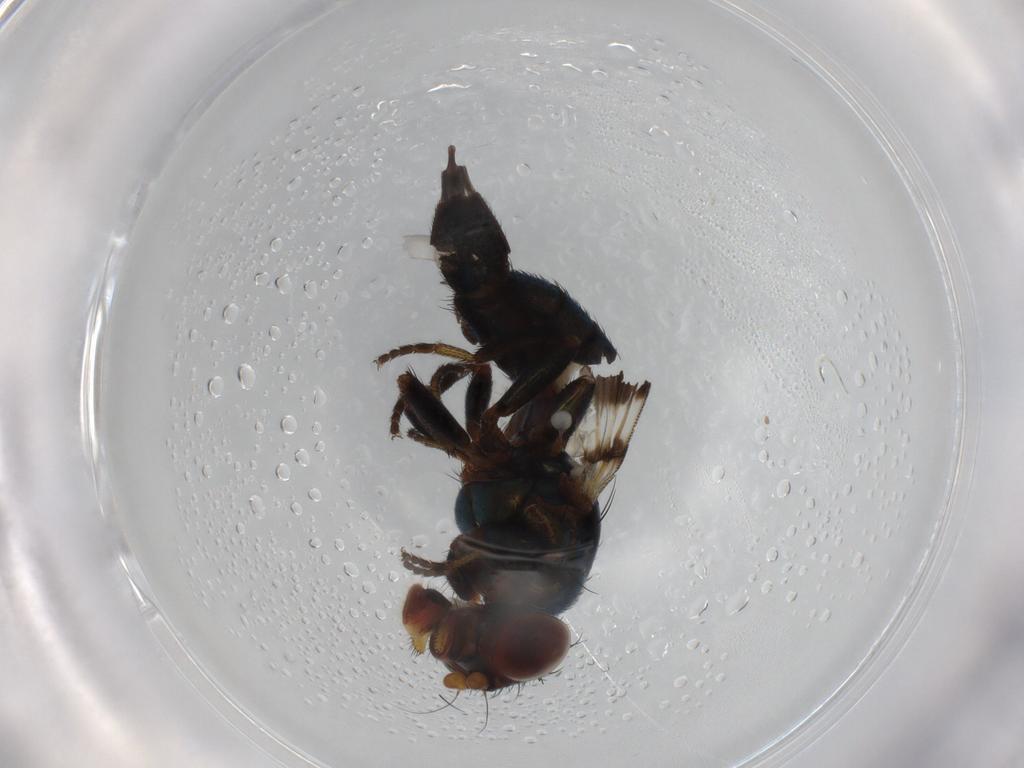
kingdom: Animalia
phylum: Arthropoda
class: Insecta
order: Diptera
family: Ulidiidae
